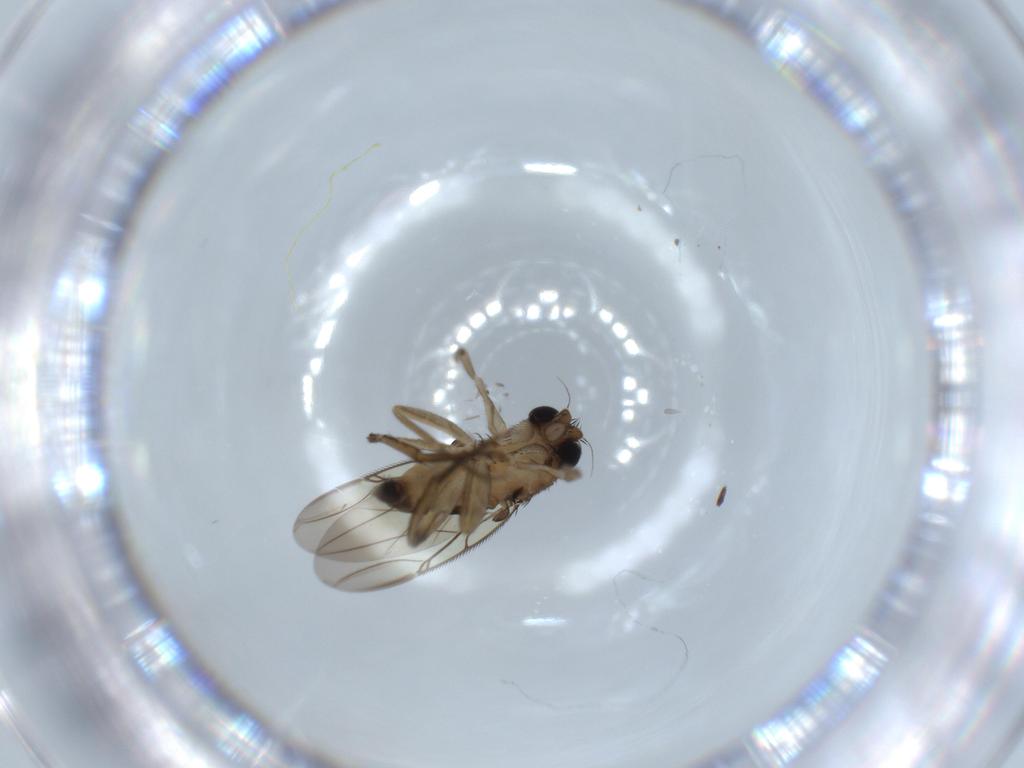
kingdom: Animalia
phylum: Arthropoda
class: Insecta
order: Diptera
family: Phoridae
